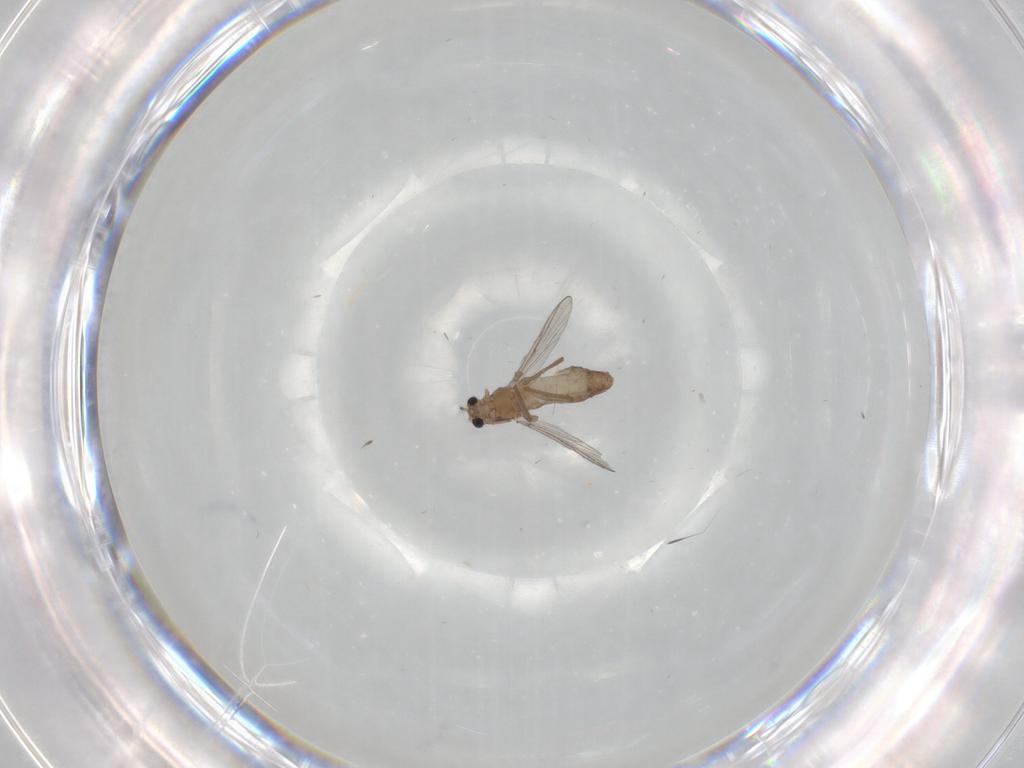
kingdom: Animalia
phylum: Arthropoda
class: Insecta
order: Diptera
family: Chironomidae
